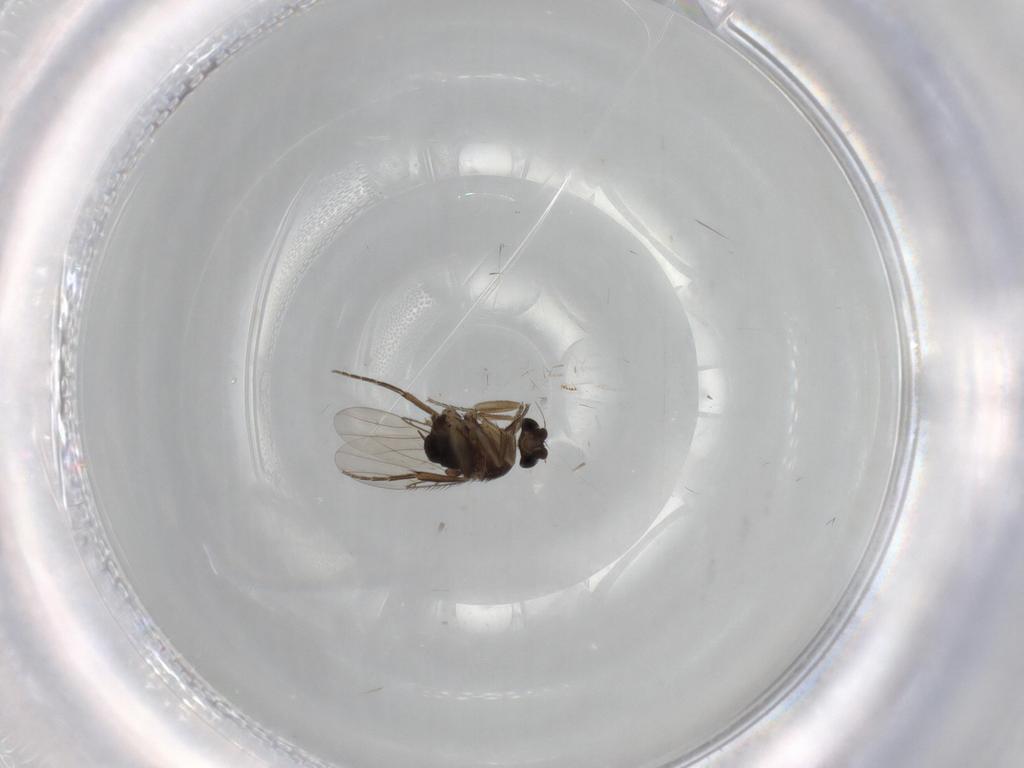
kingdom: Animalia
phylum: Arthropoda
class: Insecta
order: Diptera
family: Phoridae
